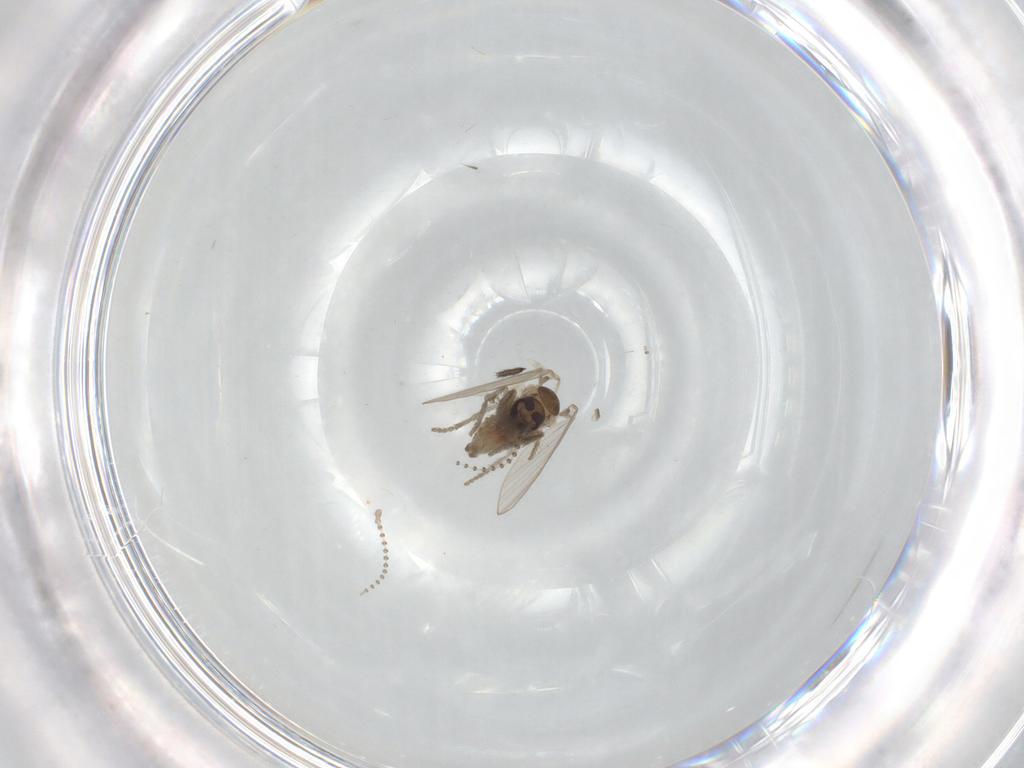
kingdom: Animalia
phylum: Arthropoda
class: Insecta
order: Diptera
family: Psychodidae
